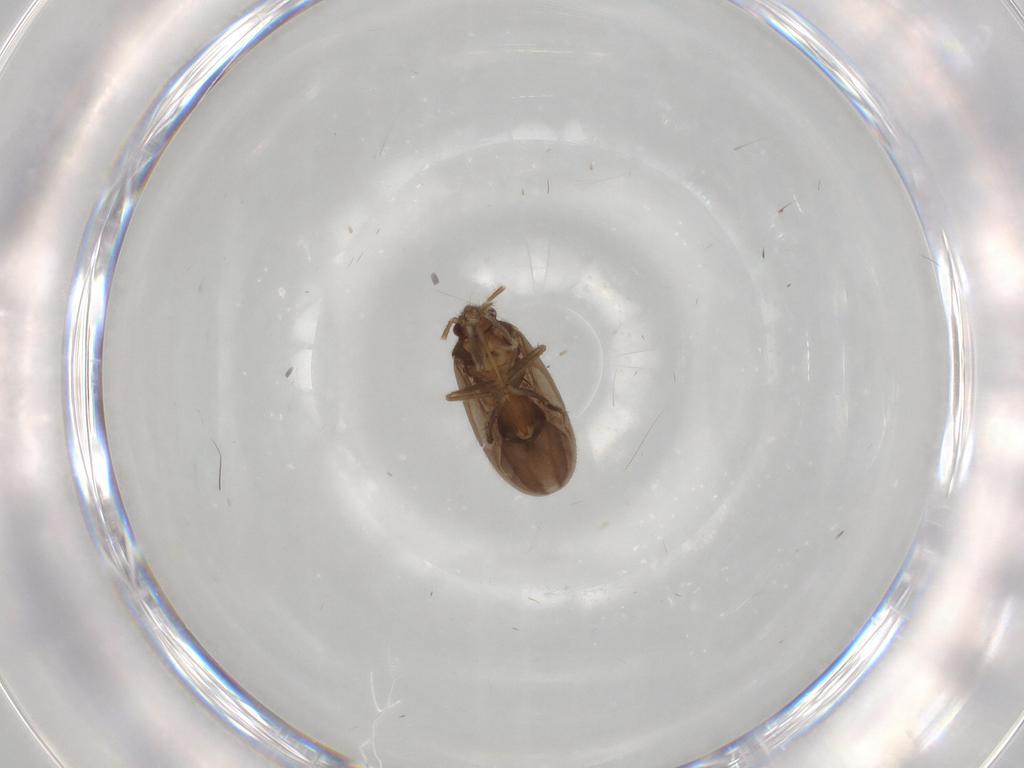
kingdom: Animalia
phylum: Arthropoda
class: Insecta
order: Hemiptera
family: Ceratocombidae
